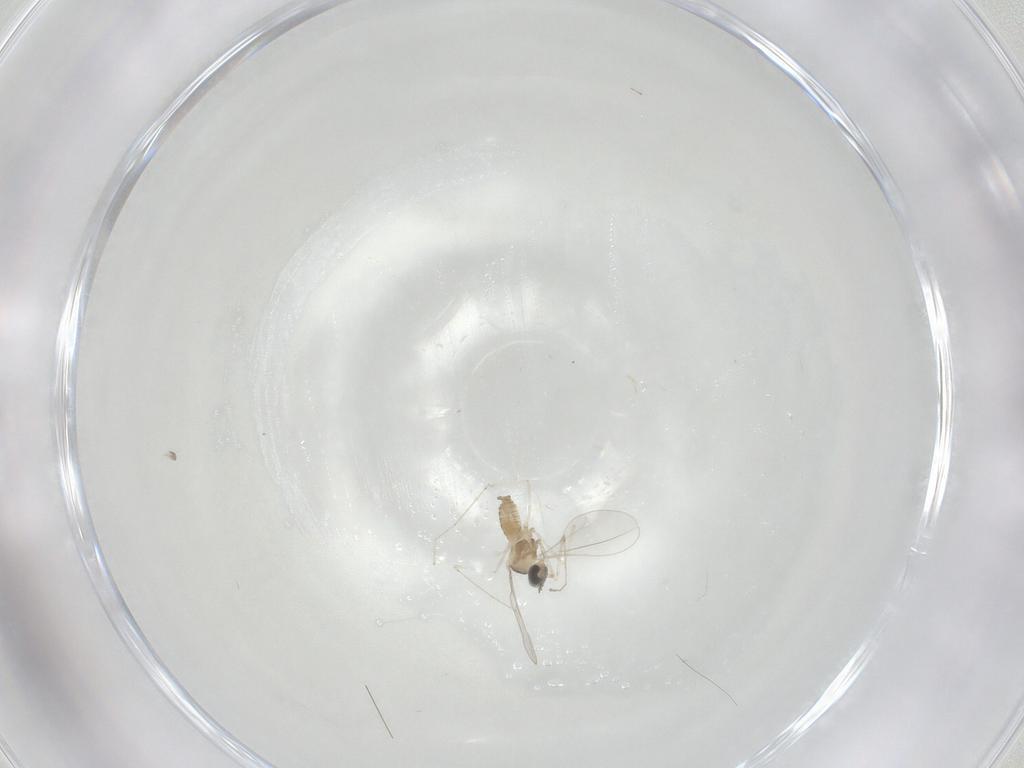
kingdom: Animalia
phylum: Arthropoda
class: Insecta
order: Diptera
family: Cecidomyiidae
